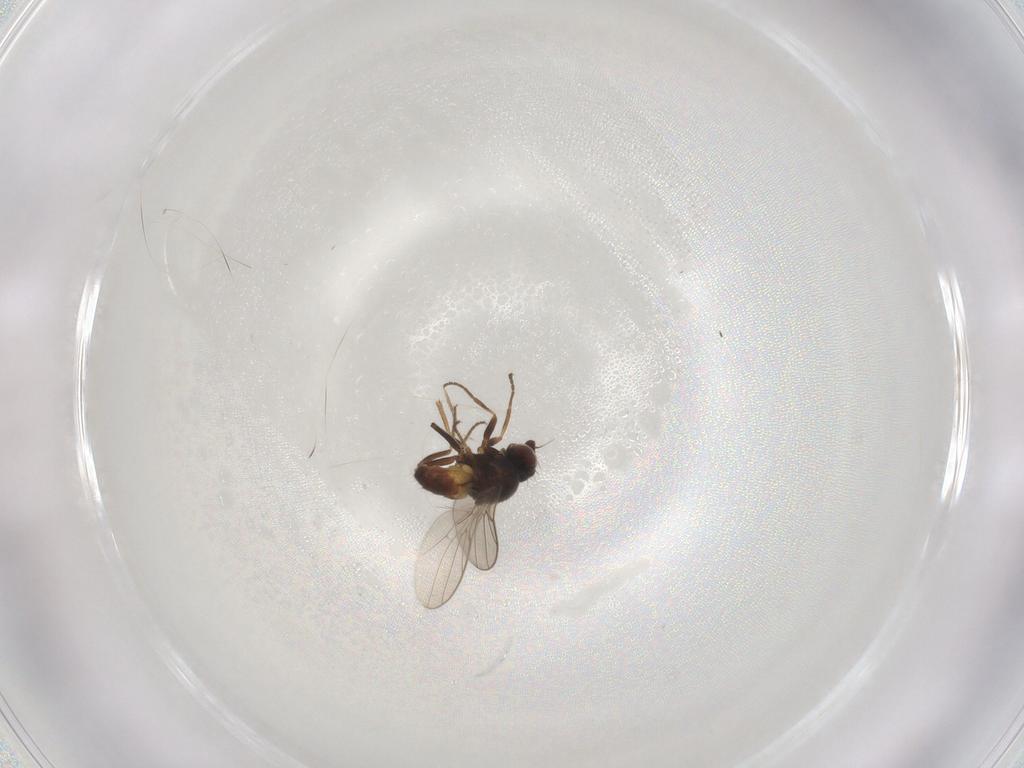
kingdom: Animalia
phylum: Arthropoda
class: Insecta
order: Diptera
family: Chloropidae
